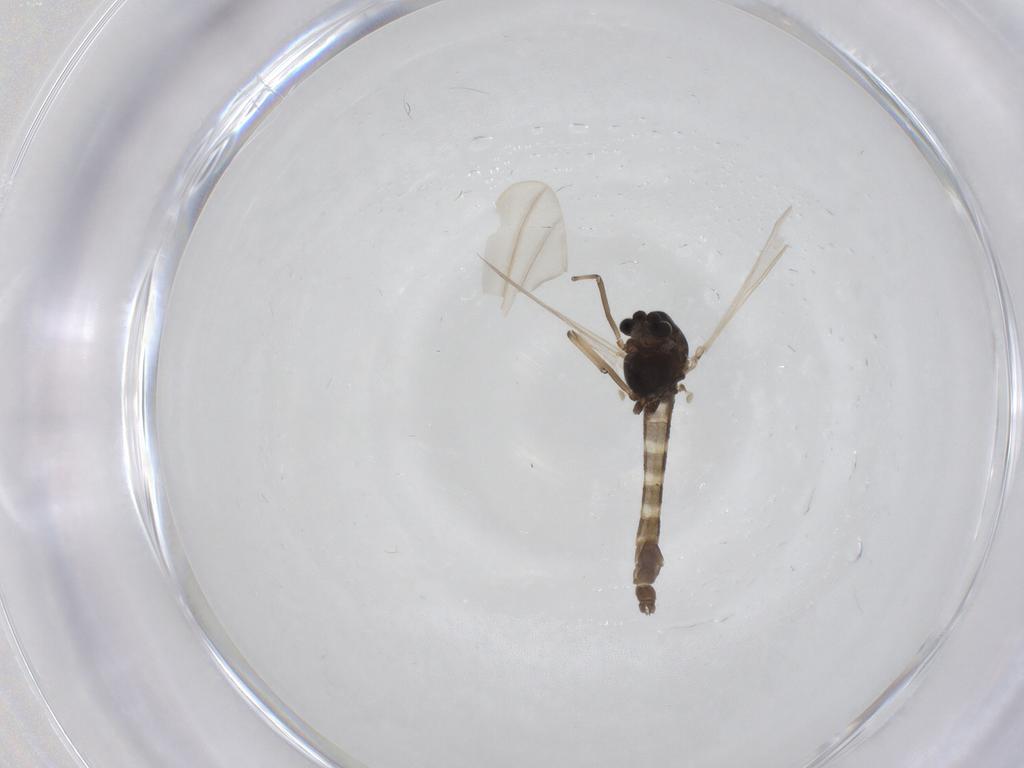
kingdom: Animalia
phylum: Arthropoda
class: Insecta
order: Diptera
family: Chironomidae
